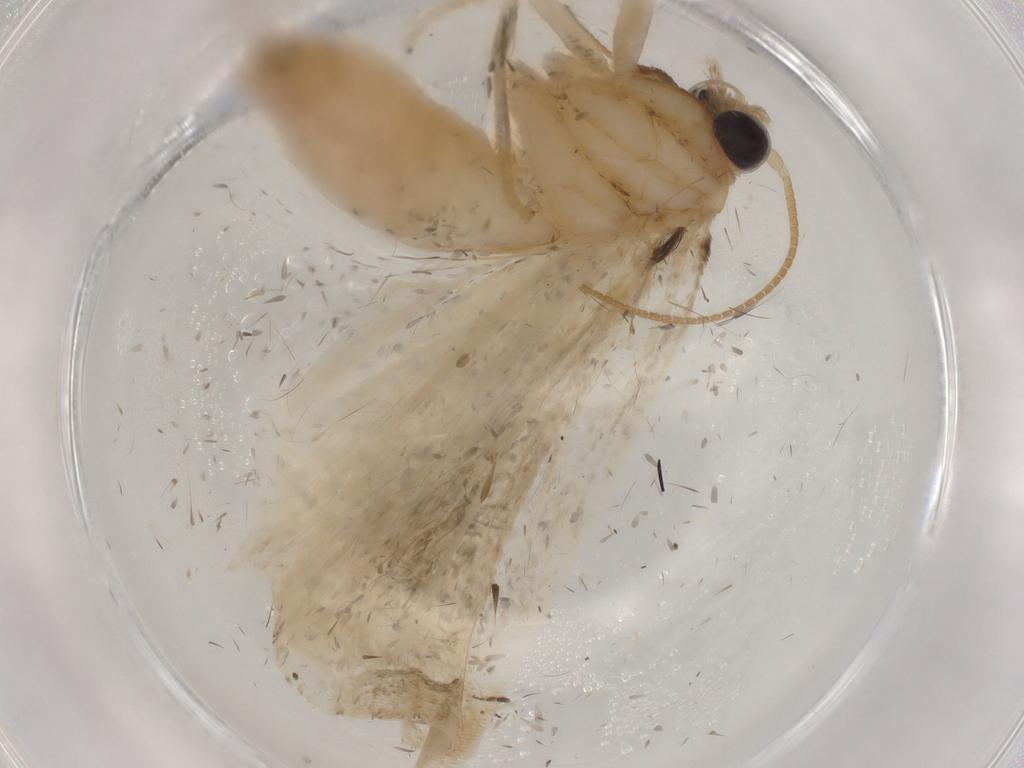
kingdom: Animalia
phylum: Arthropoda
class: Insecta
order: Lepidoptera
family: Crambidae
